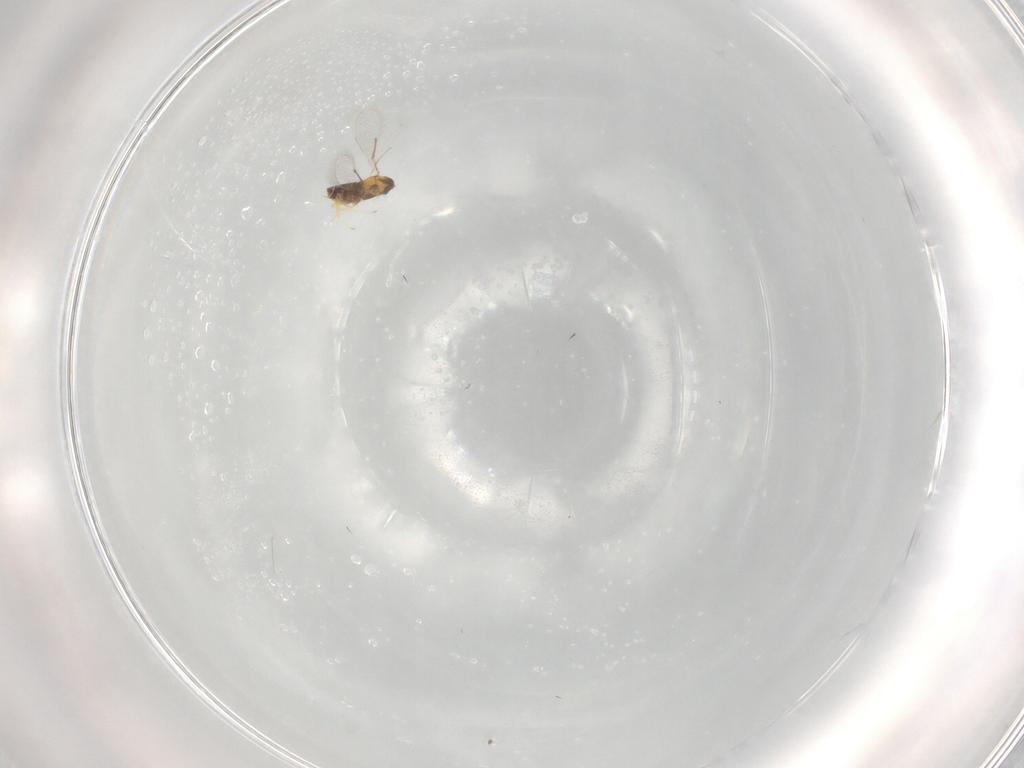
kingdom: Animalia
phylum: Arthropoda
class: Insecta
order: Hymenoptera
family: Aphelinidae
